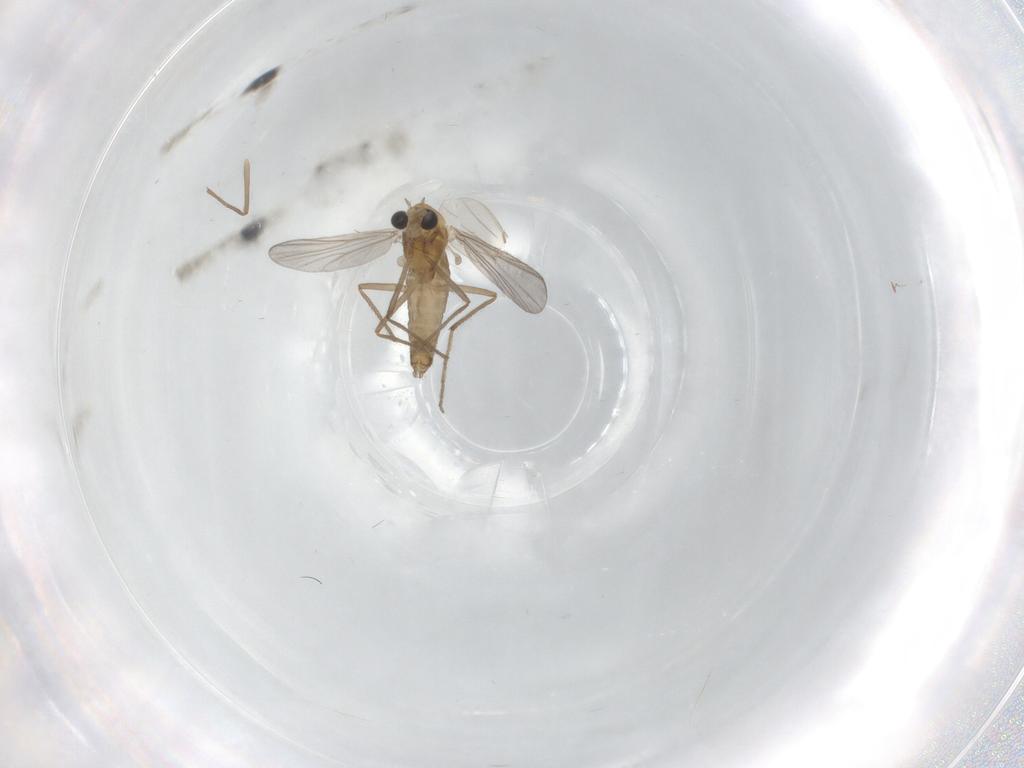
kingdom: Animalia
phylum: Arthropoda
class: Insecta
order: Diptera
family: Chironomidae
